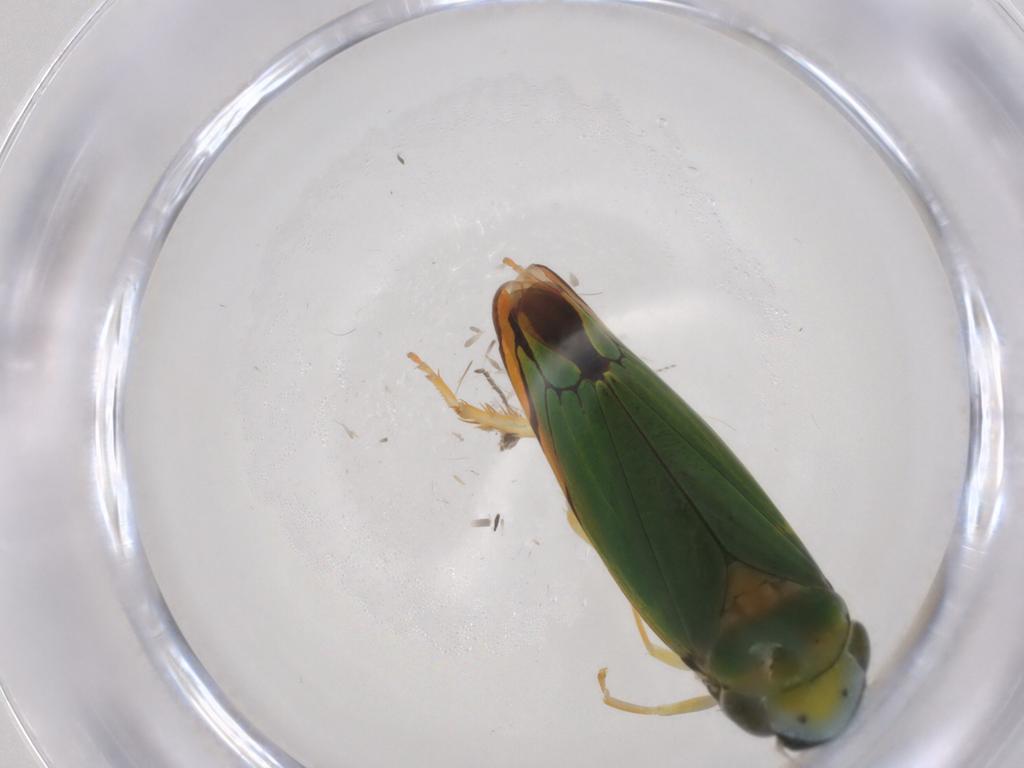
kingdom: Animalia
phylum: Arthropoda
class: Insecta
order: Hemiptera
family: Cicadellidae
